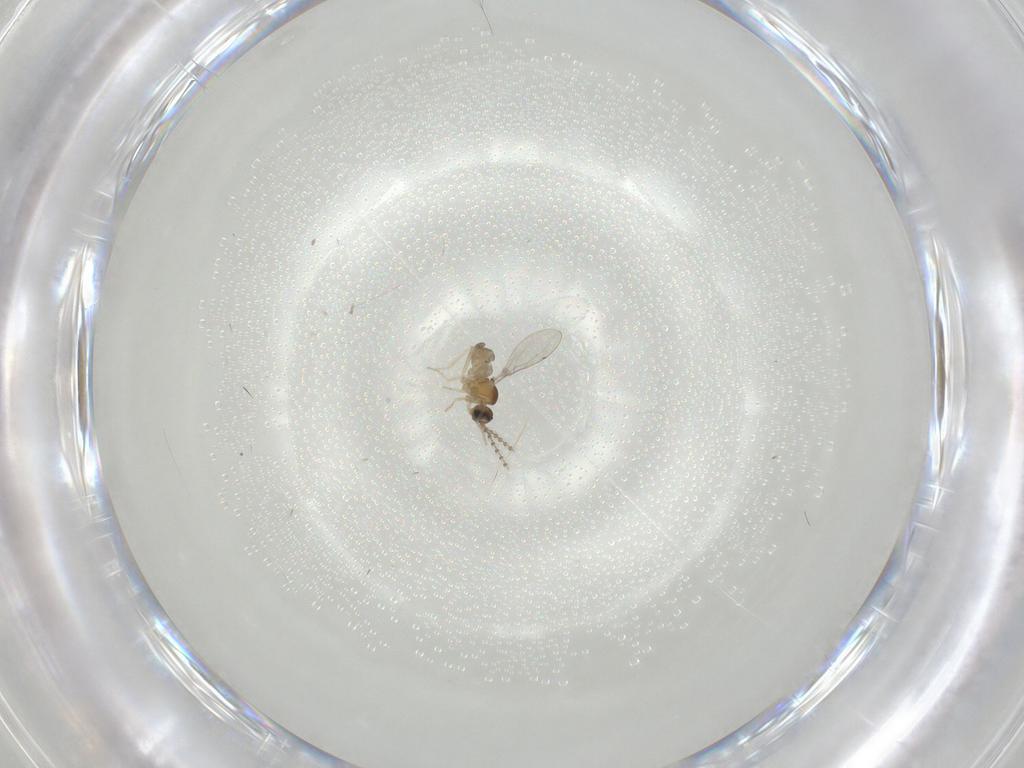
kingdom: Animalia
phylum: Arthropoda
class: Insecta
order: Diptera
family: Cecidomyiidae
